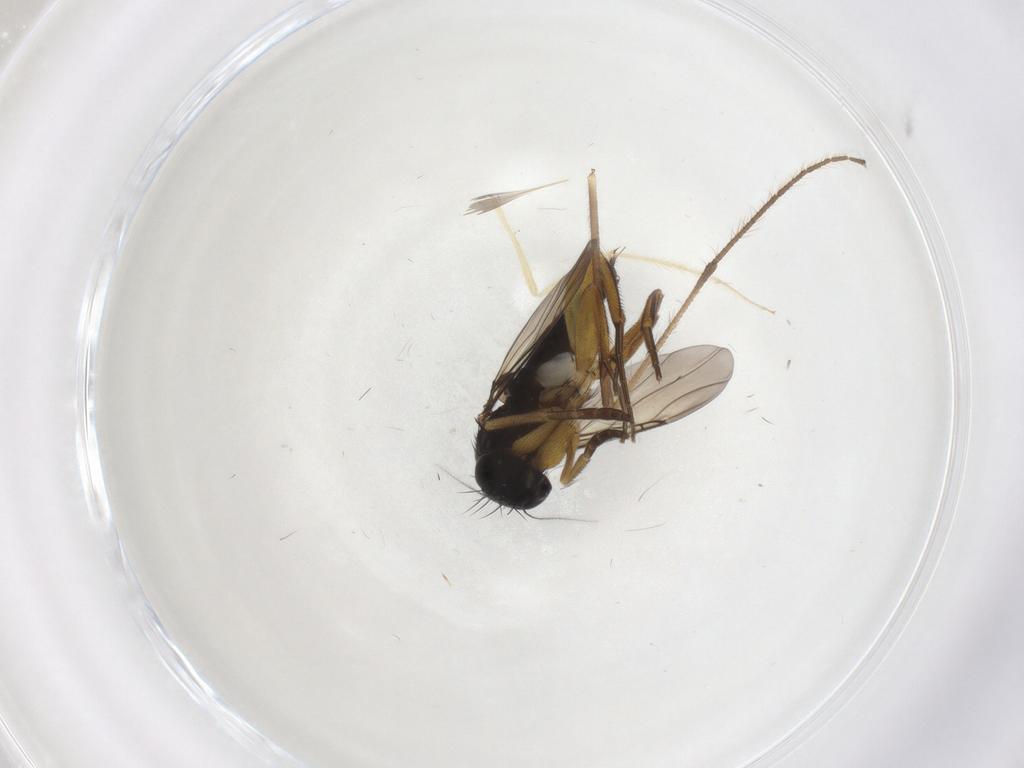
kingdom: Animalia
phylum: Arthropoda
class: Insecta
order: Diptera
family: Chironomidae
